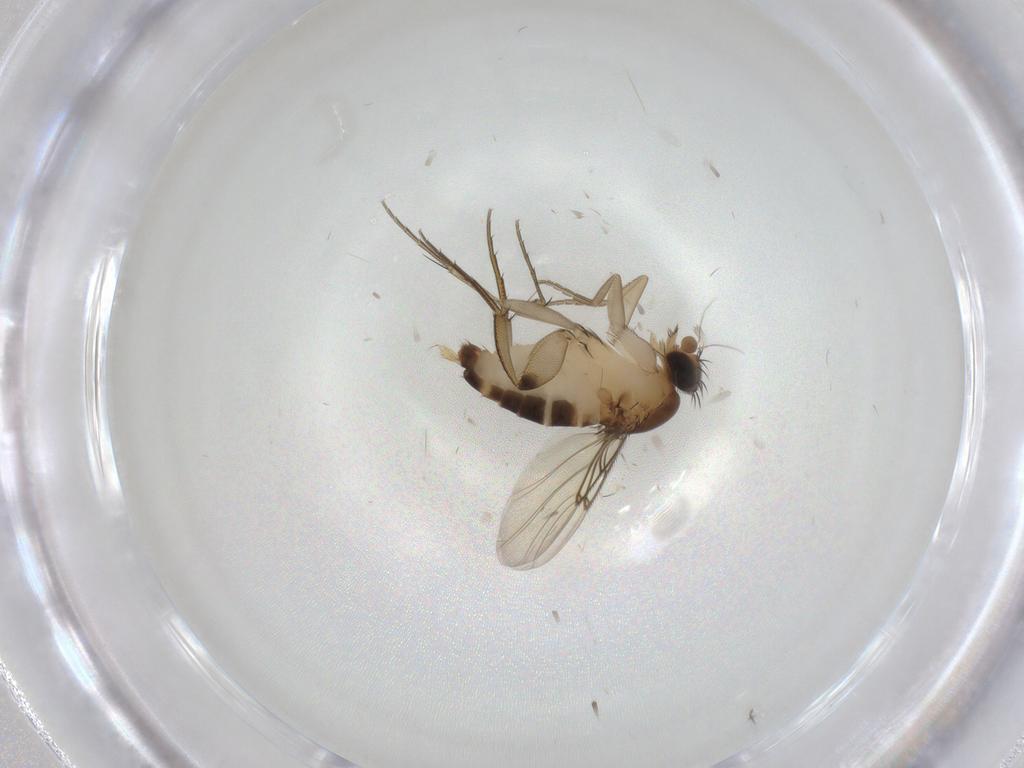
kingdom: Animalia
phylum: Arthropoda
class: Insecta
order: Diptera
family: Phoridae
